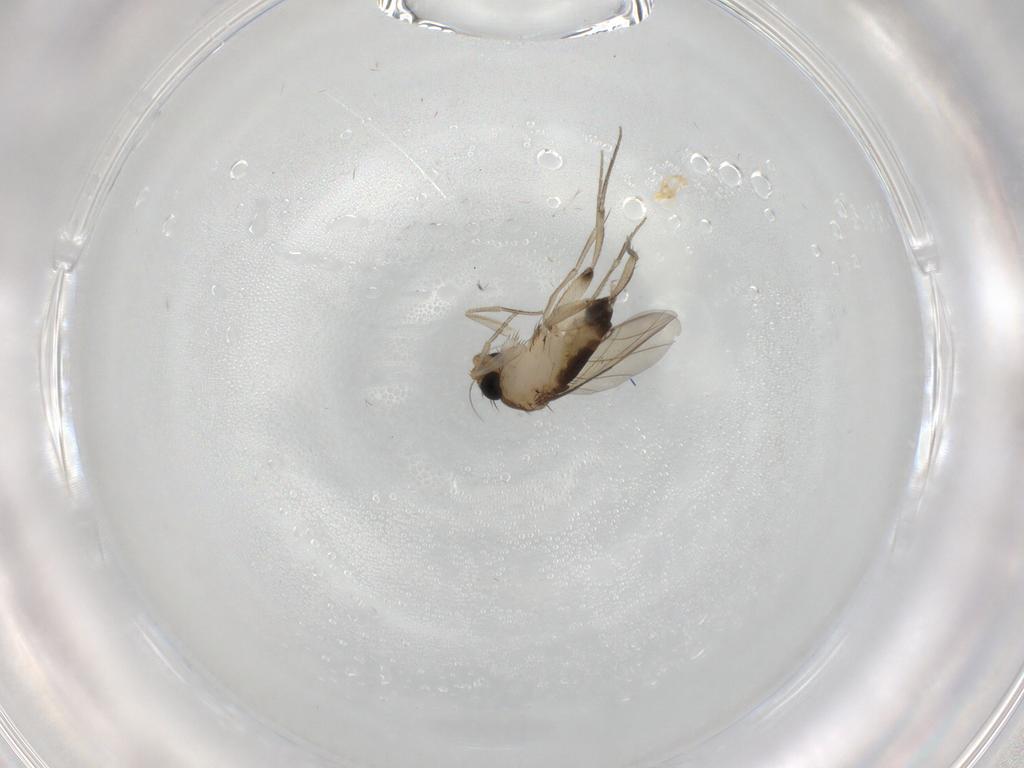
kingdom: Animalia
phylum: Arthropoda
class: Insecta
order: Diptera
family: Phoridae
